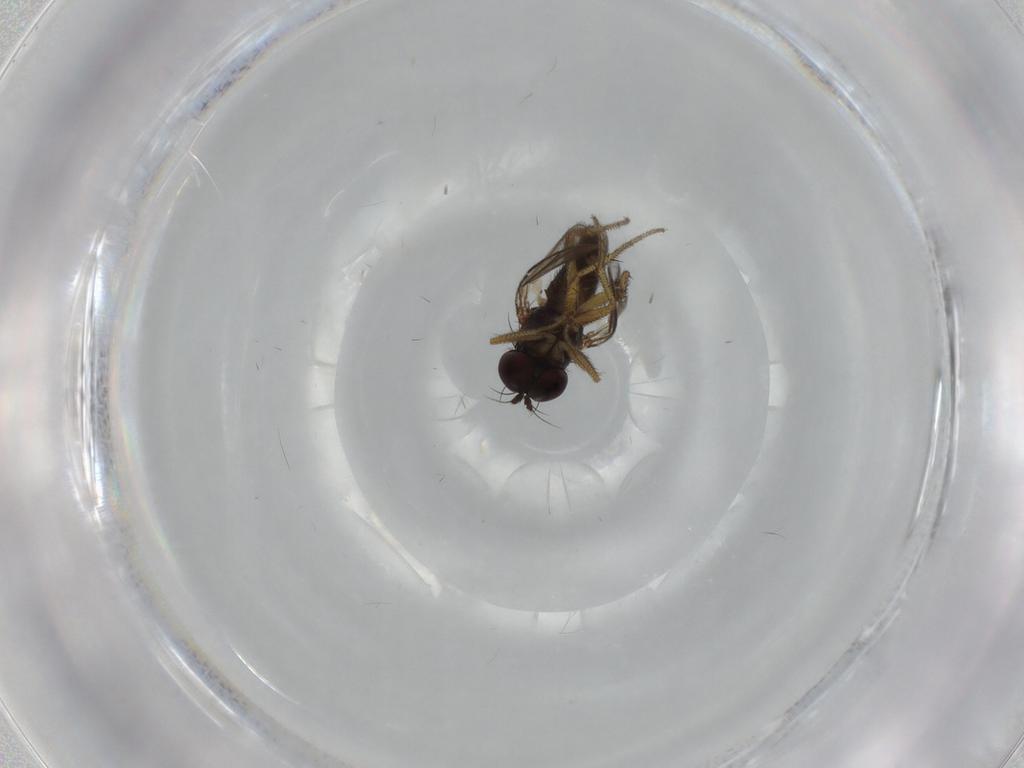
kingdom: Animalia
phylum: Arthropoda
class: Insecta
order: Diptera
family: Dolichopodidae
